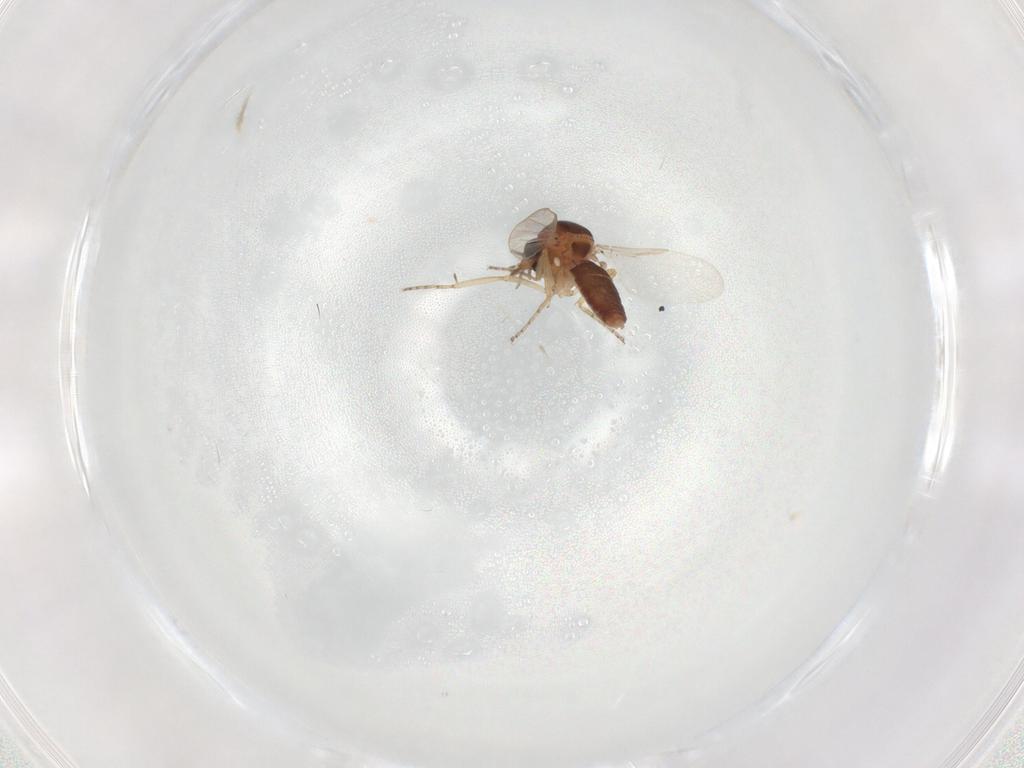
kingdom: Animalia
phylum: Arthropoda
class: Insecta
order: Diptera
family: Ceratopogonidae
